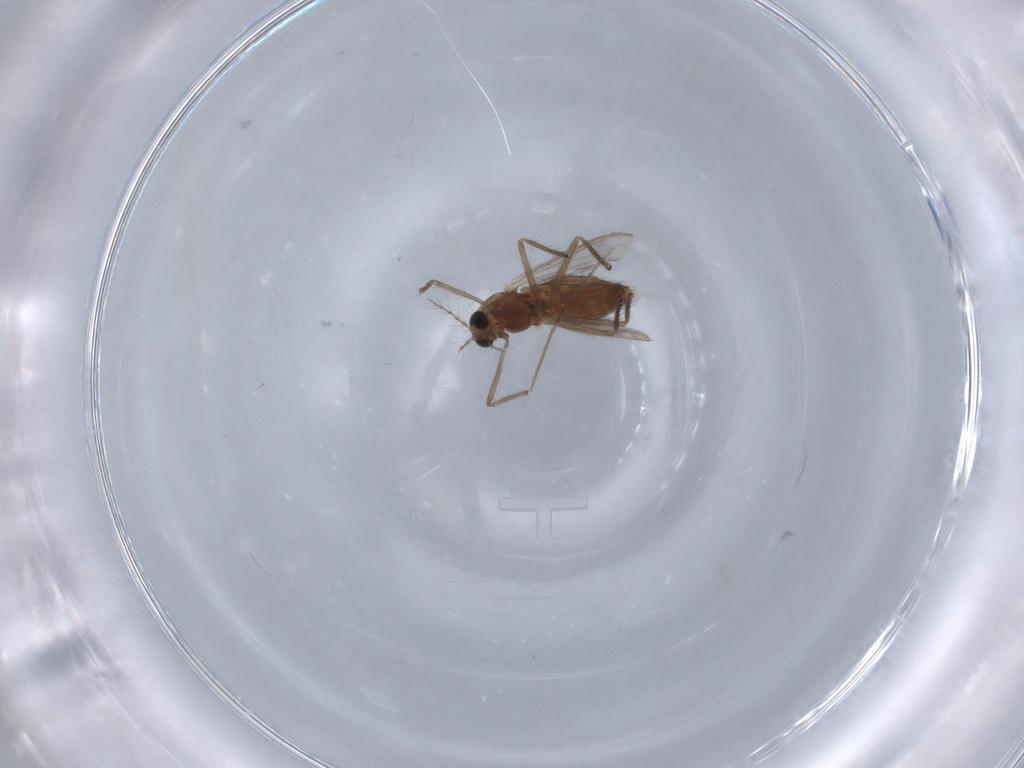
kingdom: Animalia
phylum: Arthropoda
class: Insecta
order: Diptera
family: Chironomidae
